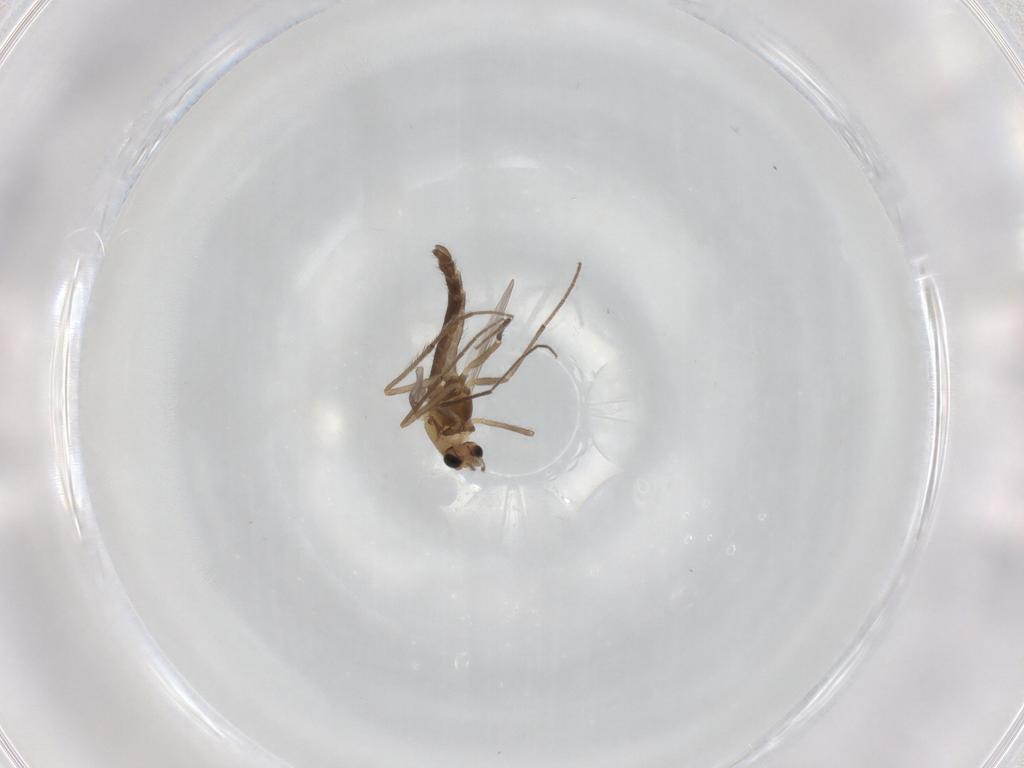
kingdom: Animalia
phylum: Arthropoda
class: Insecta
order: Diptera
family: Chironomidae
